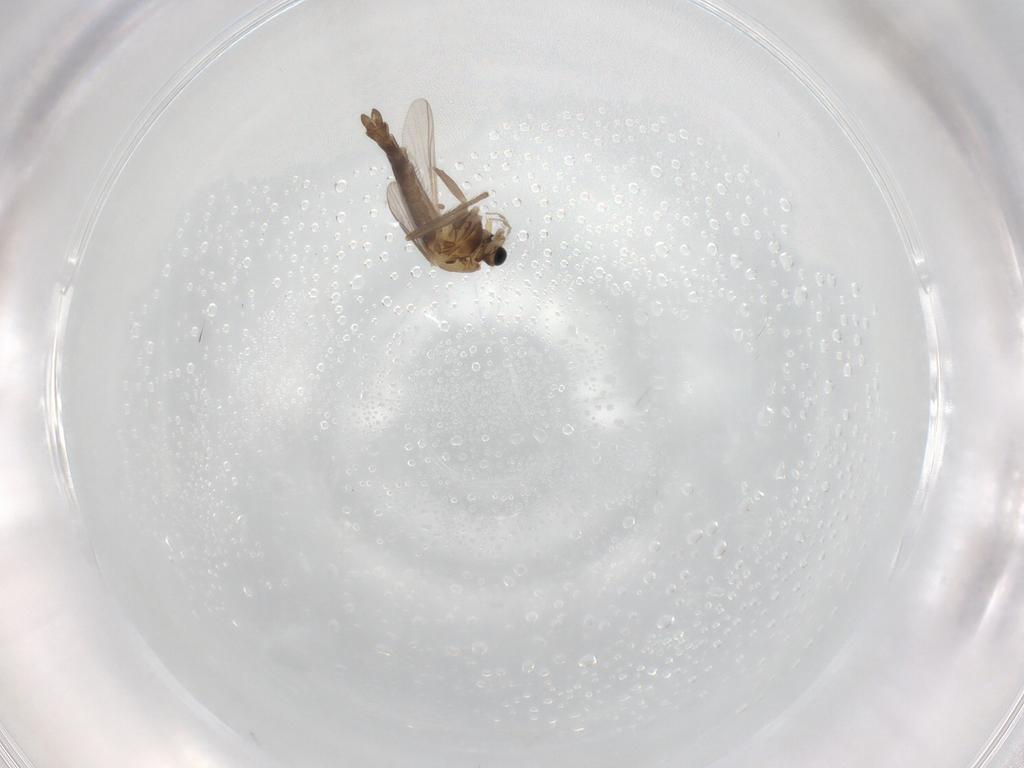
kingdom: Animalia
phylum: Arthropoda
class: Insecta
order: Diptera
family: Chironomidae
